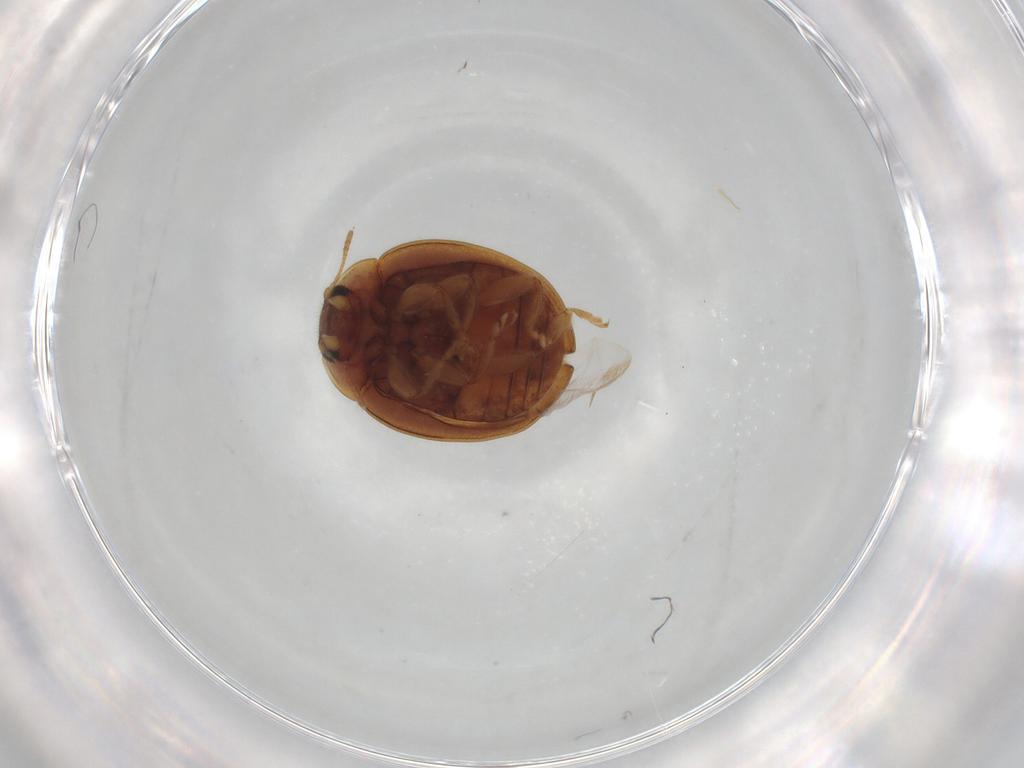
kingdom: Animalia
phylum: Arthropoda
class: Insecta
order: Coleoptera
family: Coccinellidae
